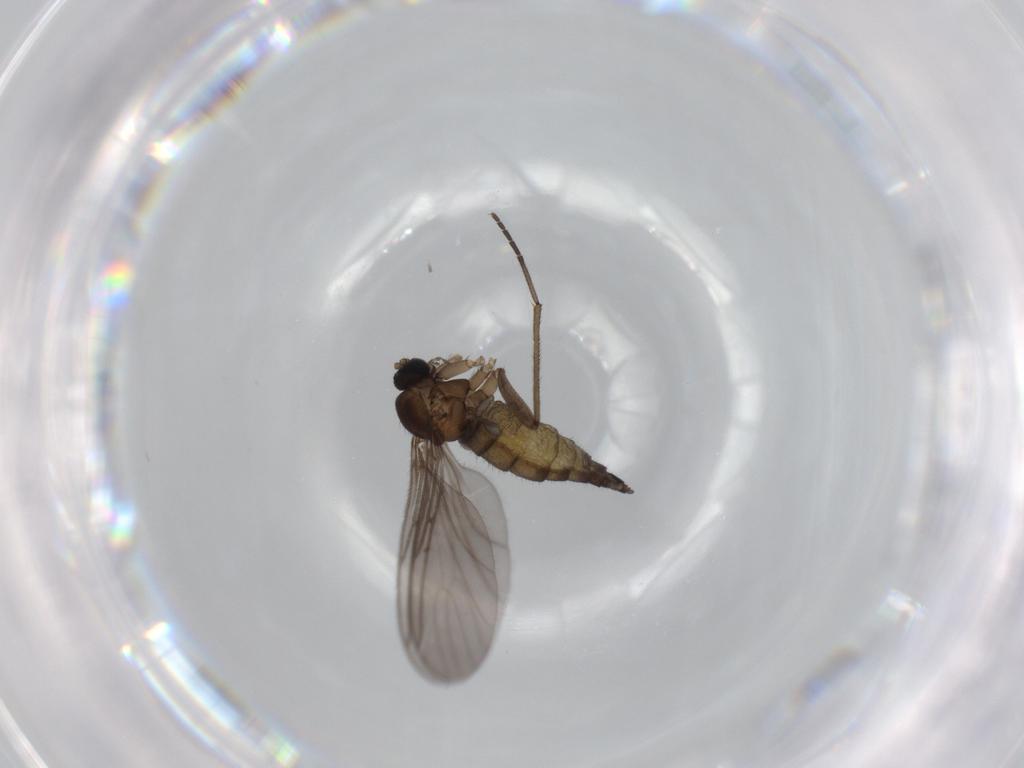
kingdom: Animalia
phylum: Arthropoda
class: Insecta
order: Diptera
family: Sciaridae
